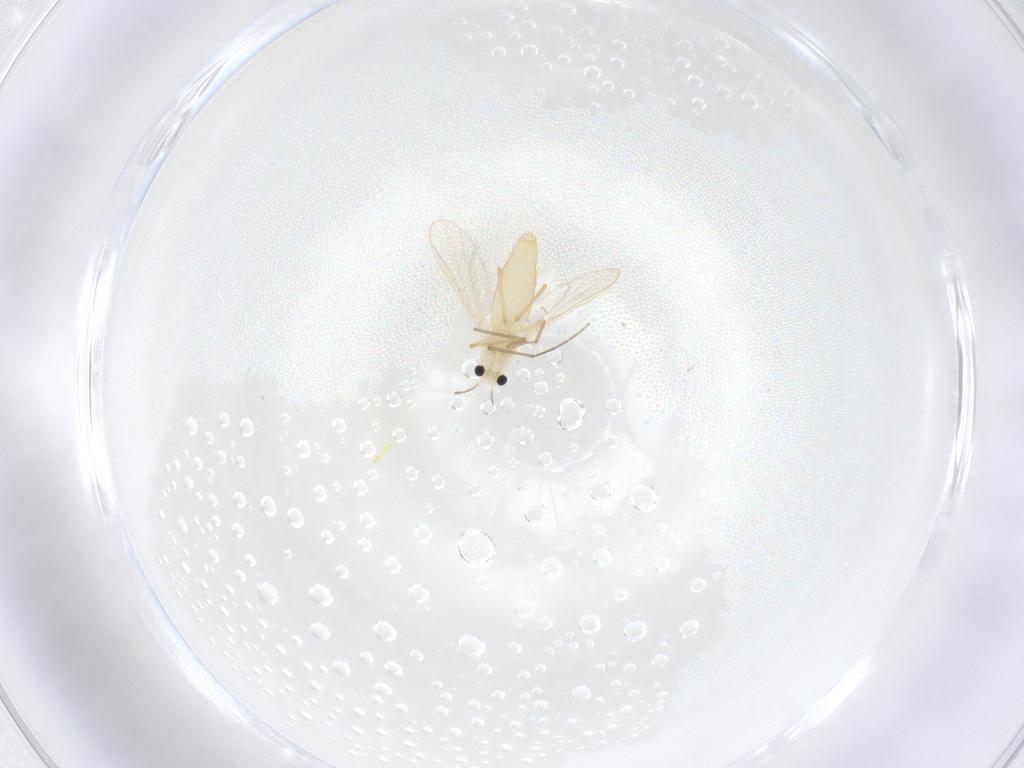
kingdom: Animalia
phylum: Arthropoda
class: Insecta
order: Diptera
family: Chironomidae
